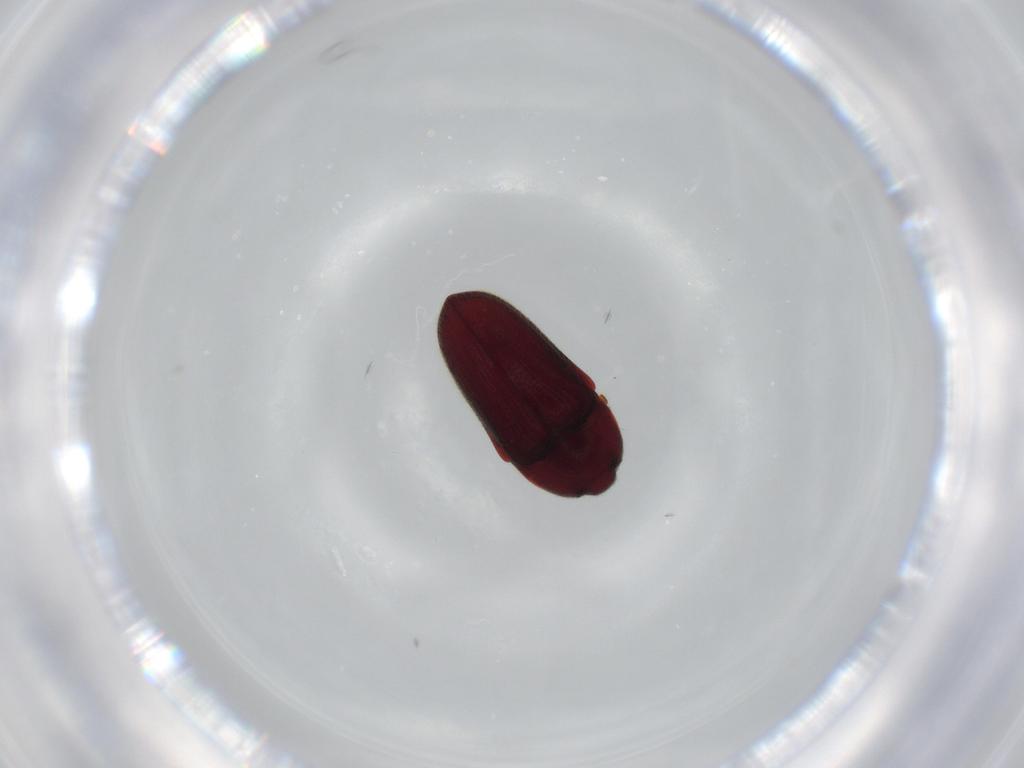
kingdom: Animalia
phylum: Arthropoda
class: Insecta
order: Coleoptera
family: Throscidae
